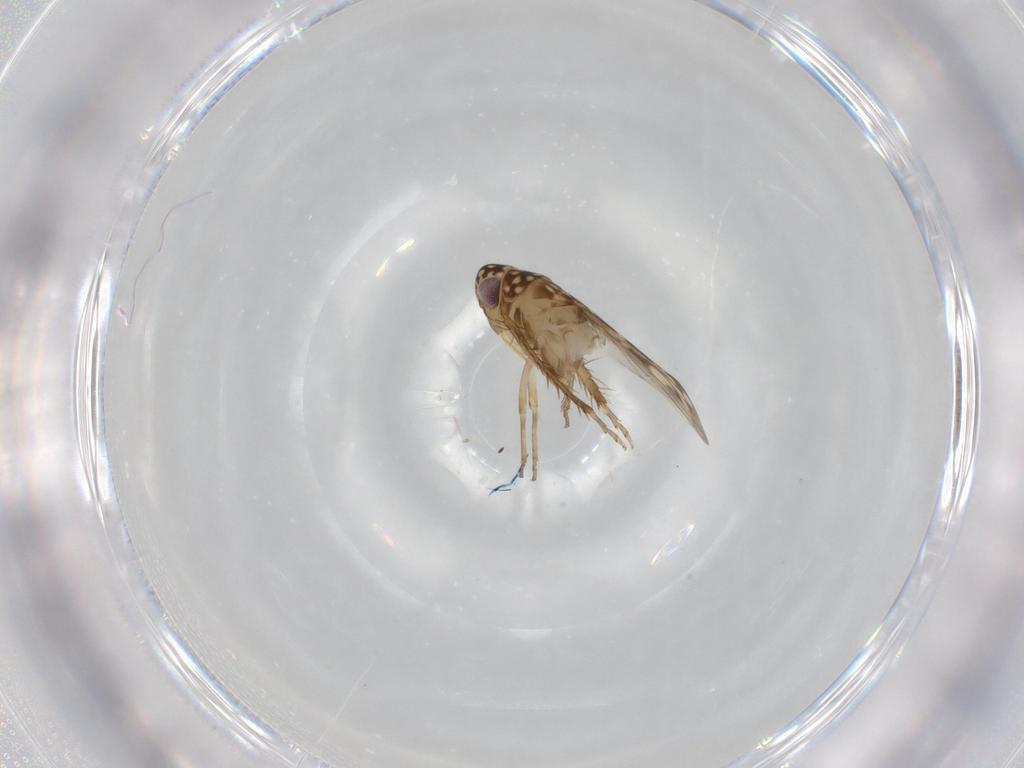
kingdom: Animalia
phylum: Arthropoda
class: Insecta
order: Hemiptera
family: Cicadellidae
